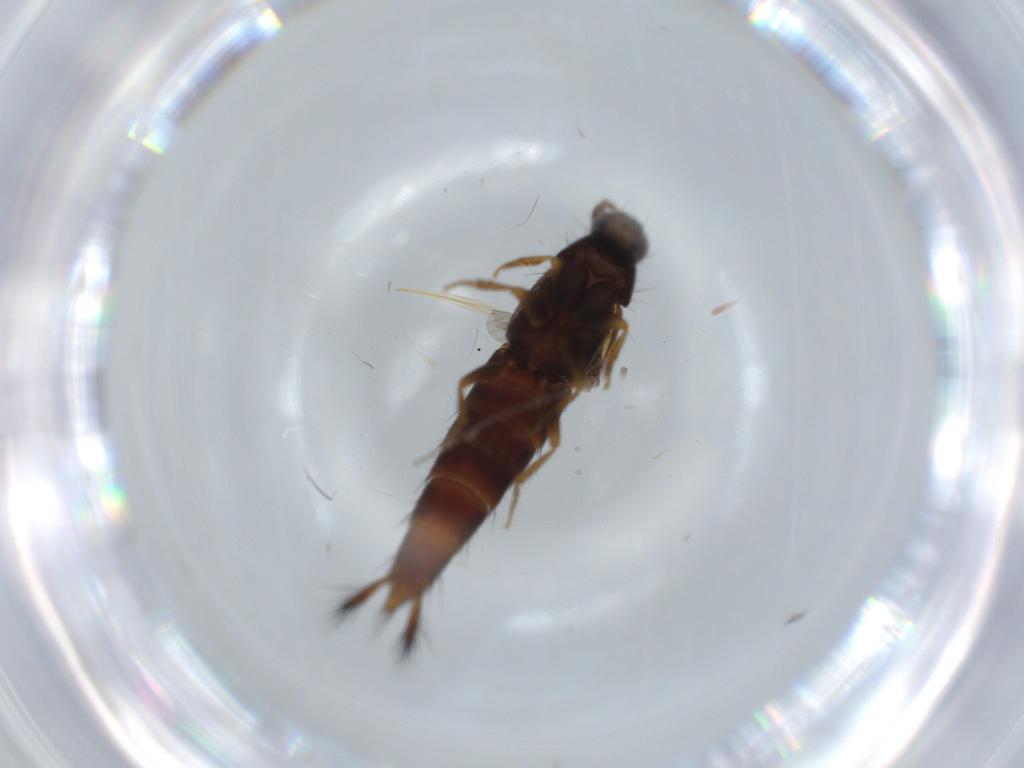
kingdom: Animalia
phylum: Arthropoda
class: Insecta
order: Coleoptera
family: Staphylinidae
